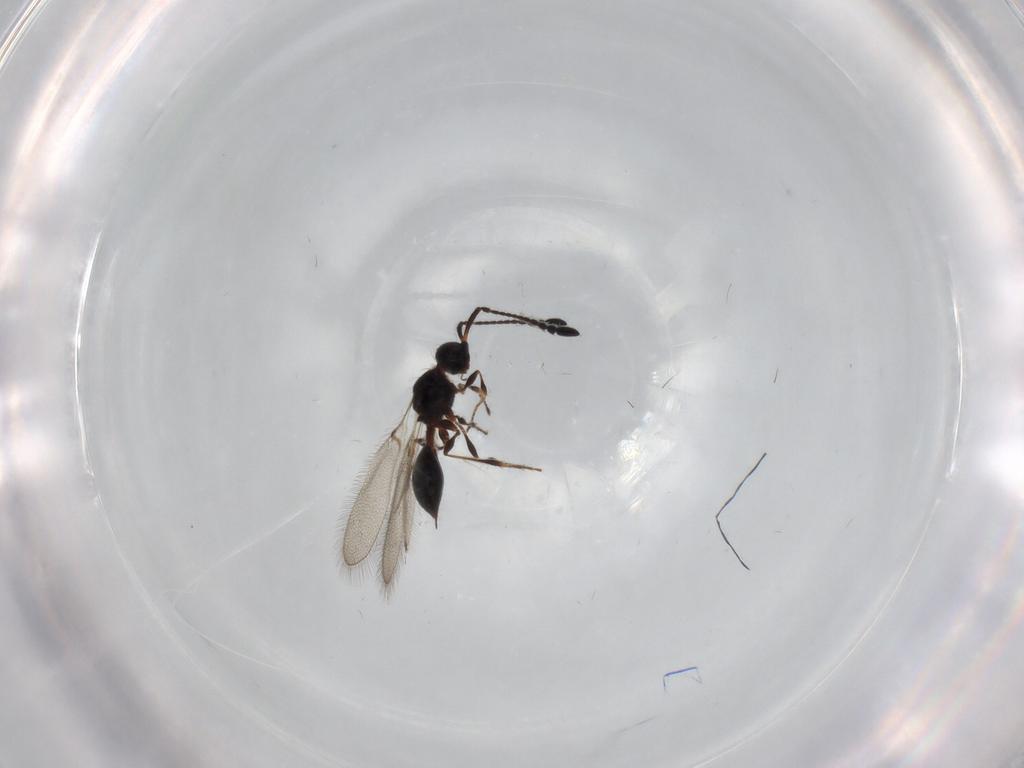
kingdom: Animalia
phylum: Arthropoda
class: Insecta
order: Hymenoptera
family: Diapriidae
